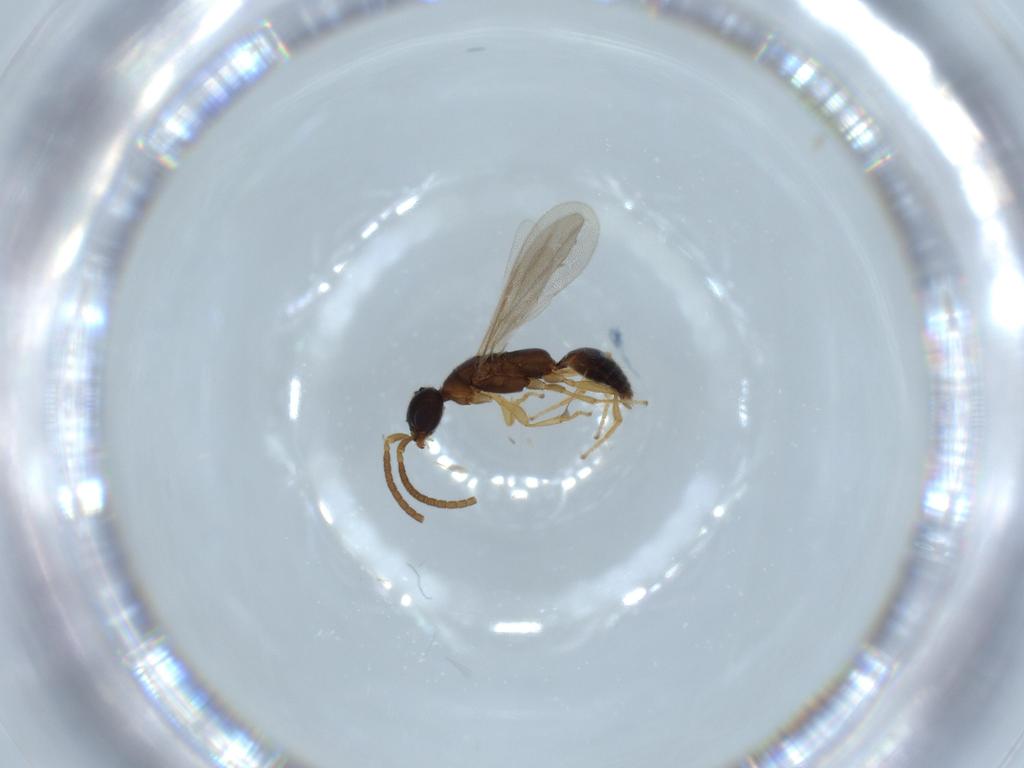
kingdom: Animalia
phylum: Arthropoda
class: Insecta
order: Hymenoptera
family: Bethylidae
